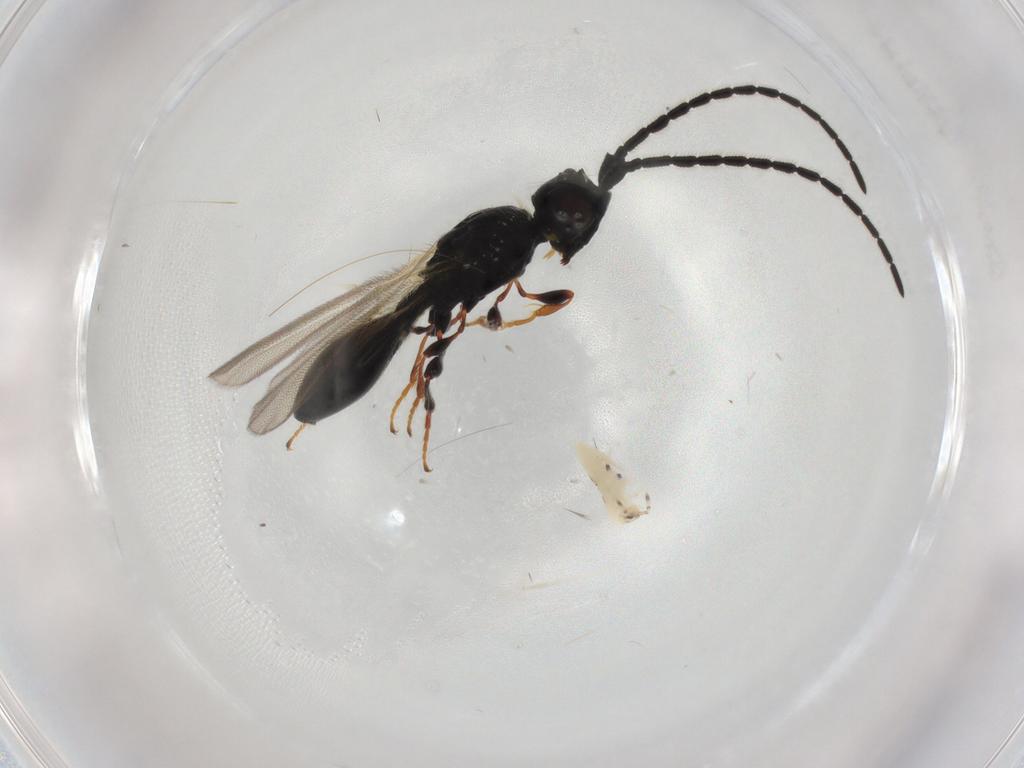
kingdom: Animalia
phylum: Arthropoda
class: Insecta
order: Hymenoptera
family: Diapriidae
